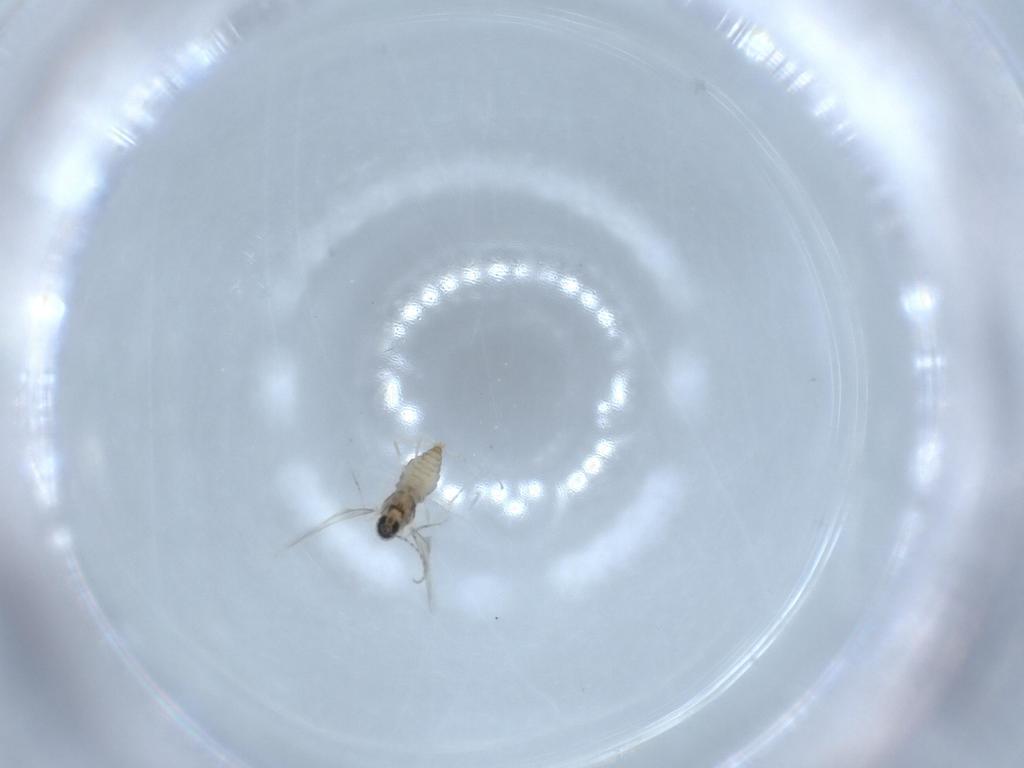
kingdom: Animalia
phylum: Arthropoda
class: Insecta
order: Diptera
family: Cecidomyiidae
